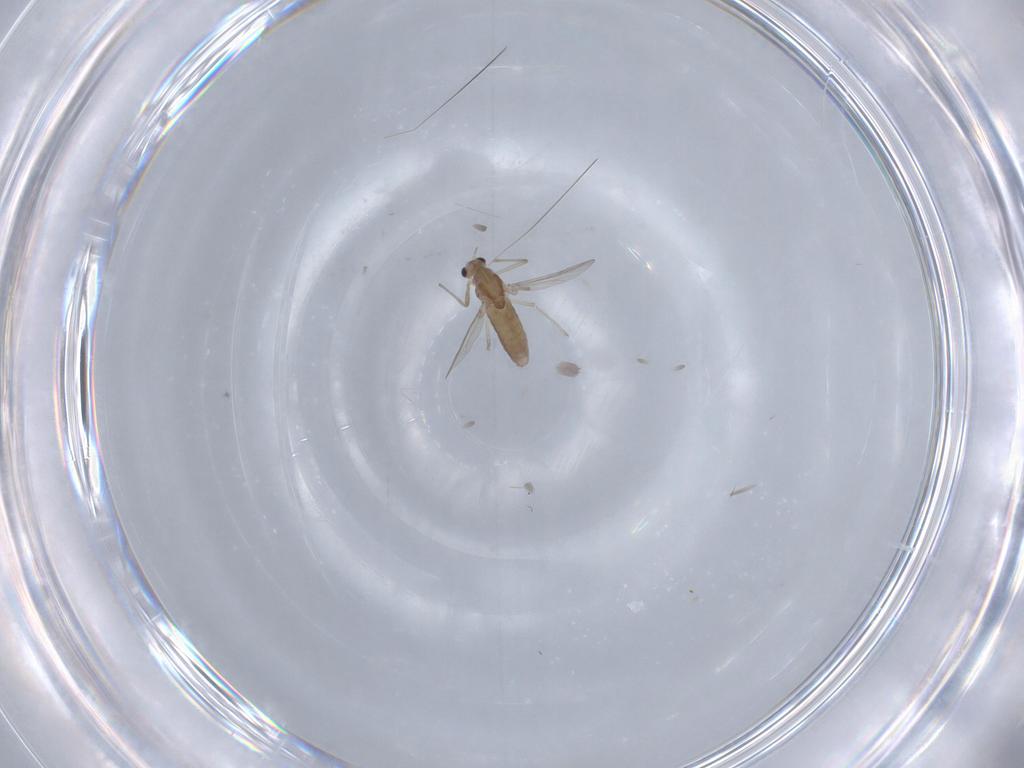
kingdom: Animalia
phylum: Arthropoda
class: Insecta
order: Diptera
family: Chironomidae
